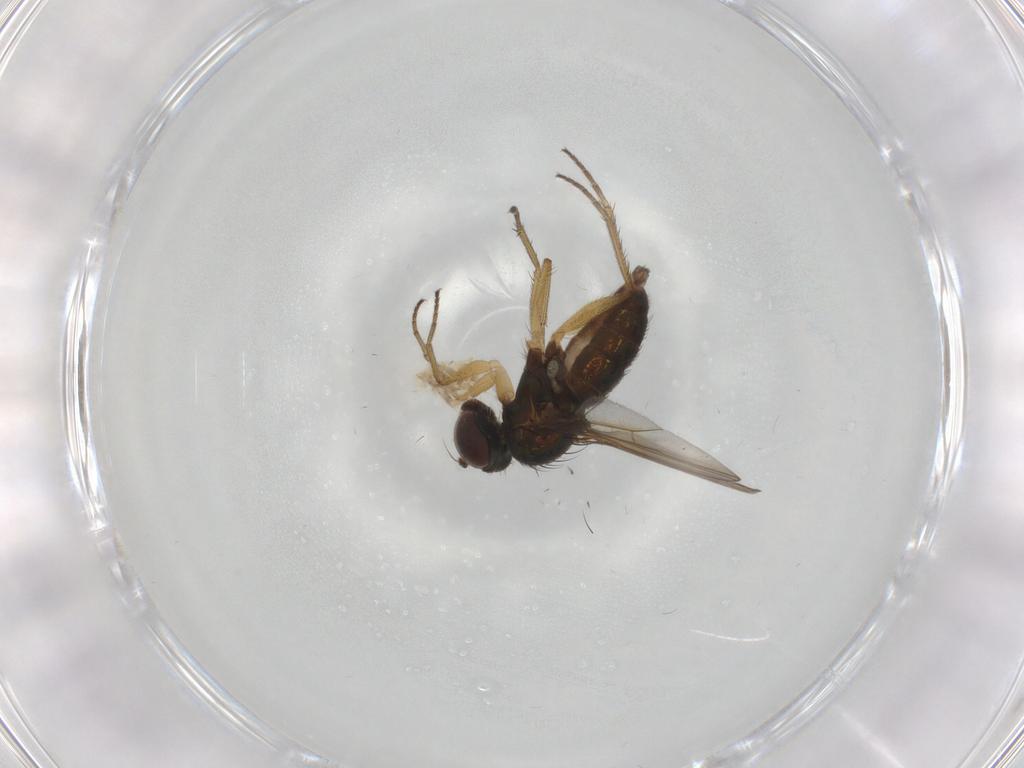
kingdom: Animalia
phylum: Arthropoda
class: Insecta
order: Diptera
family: Dolichopodidae
